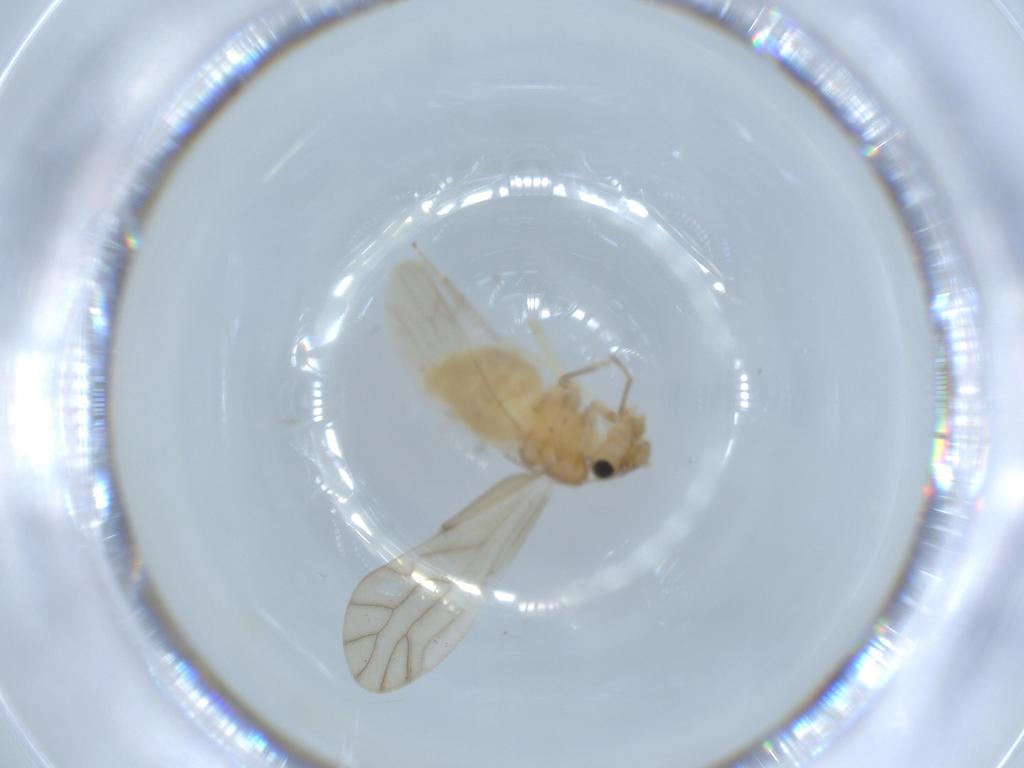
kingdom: Animalia
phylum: Arthropoda
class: Insecta
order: Psocodea
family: Caeciliusidae
